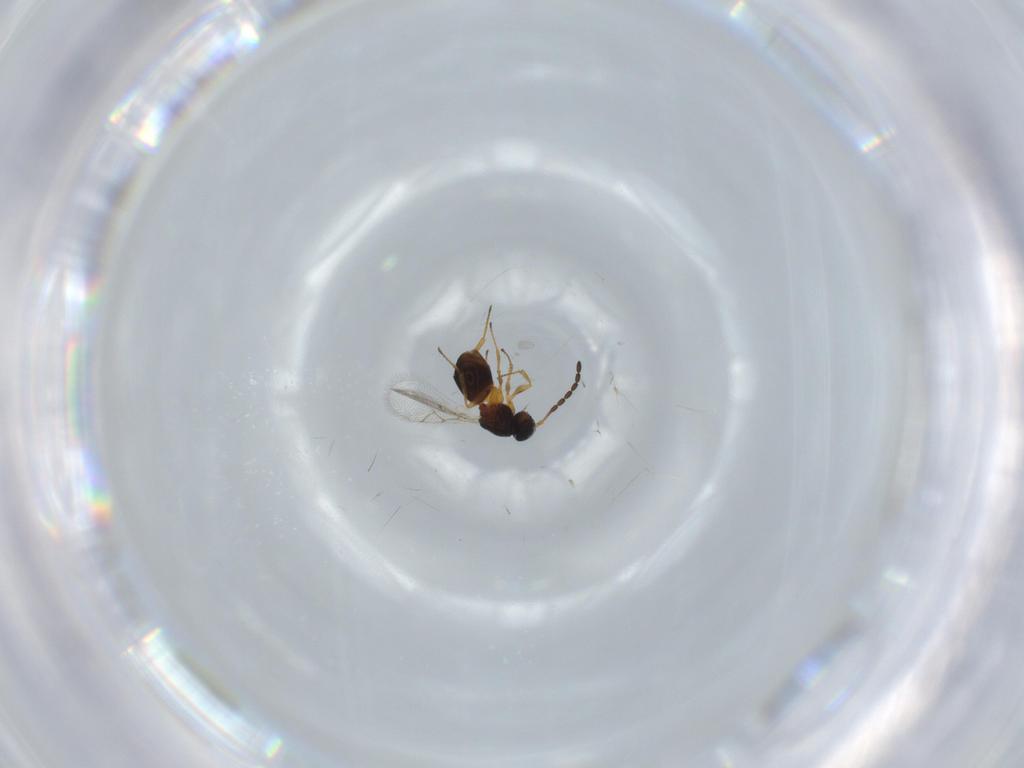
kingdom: Animalia
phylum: Arthropoda
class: Insecta
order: Hymenoptera
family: Figitidae
